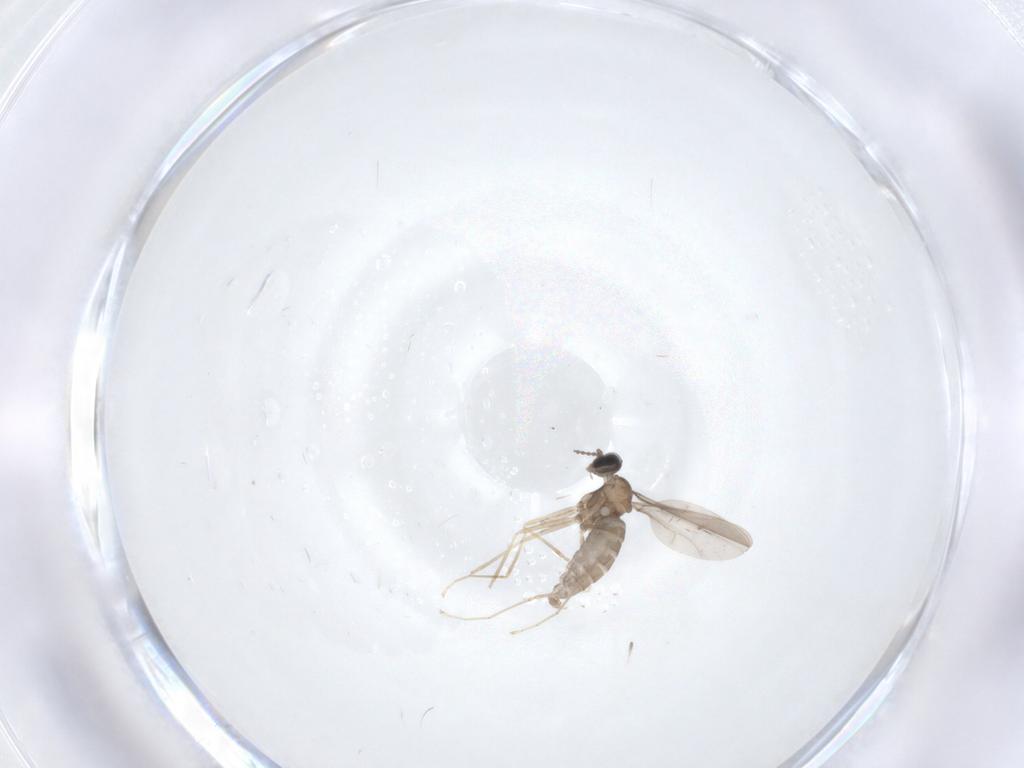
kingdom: Animalia
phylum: Arthropoda
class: Insecta
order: Diptera
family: Cecidomyiidae
